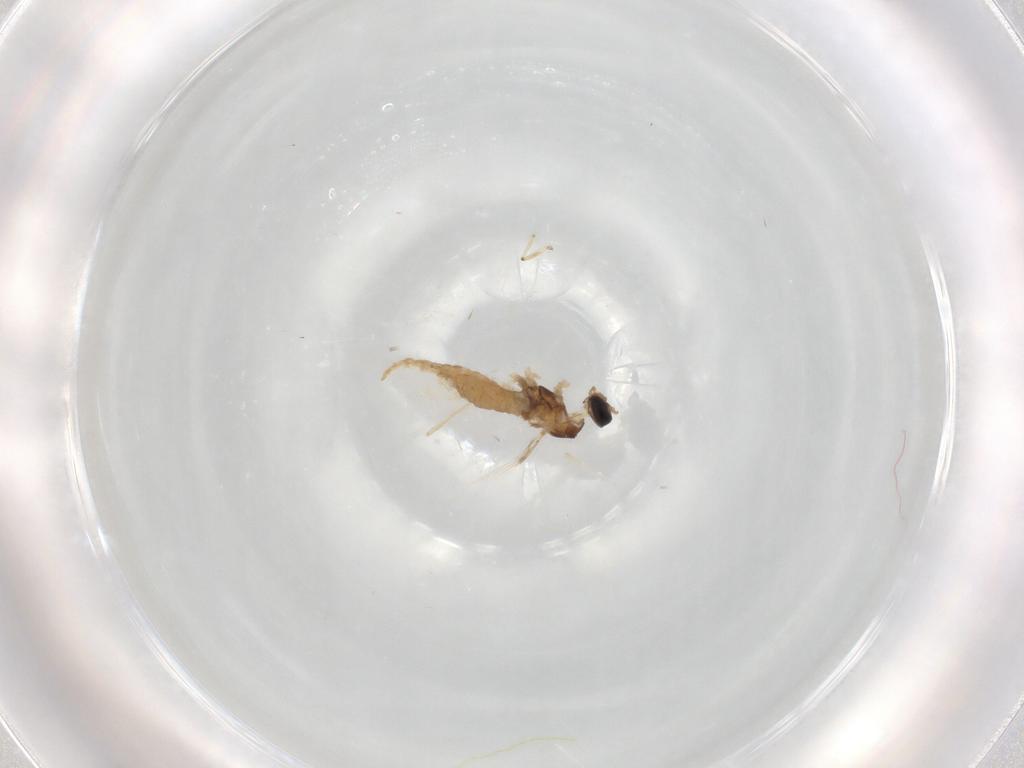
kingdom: Animalia
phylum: Arthropoda
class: Insecta
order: Diptera
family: Cecidomyiidae
